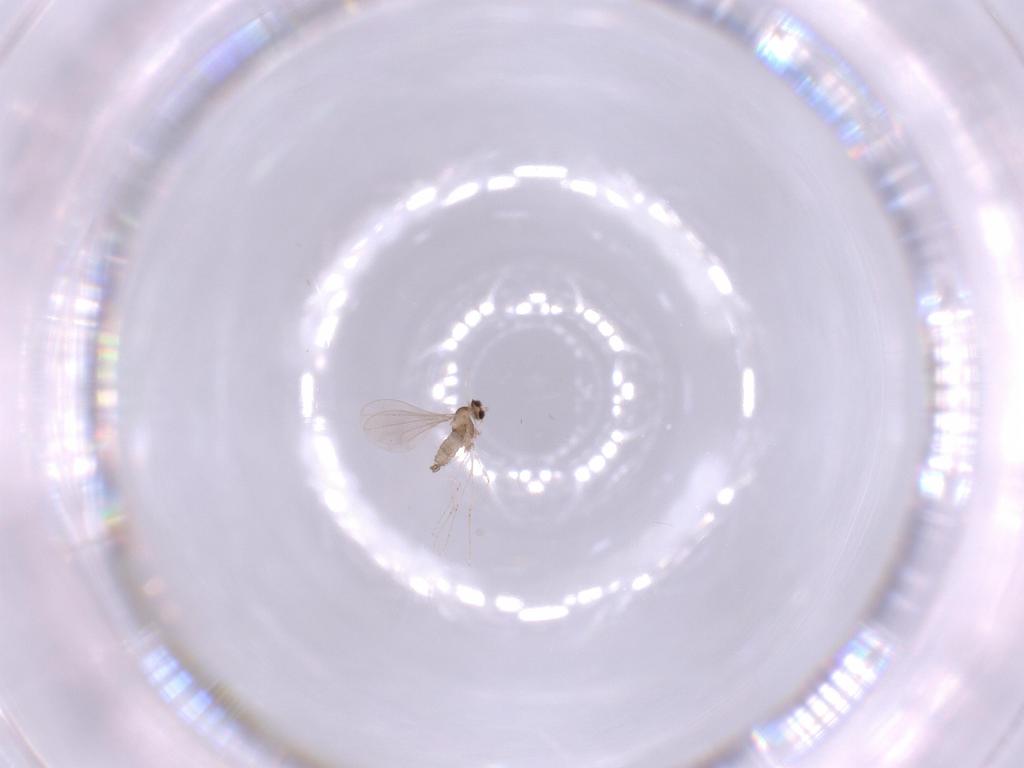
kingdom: Animalia
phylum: Arthropoda
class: Insecta
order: Diptera
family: Cecidomyiidae
